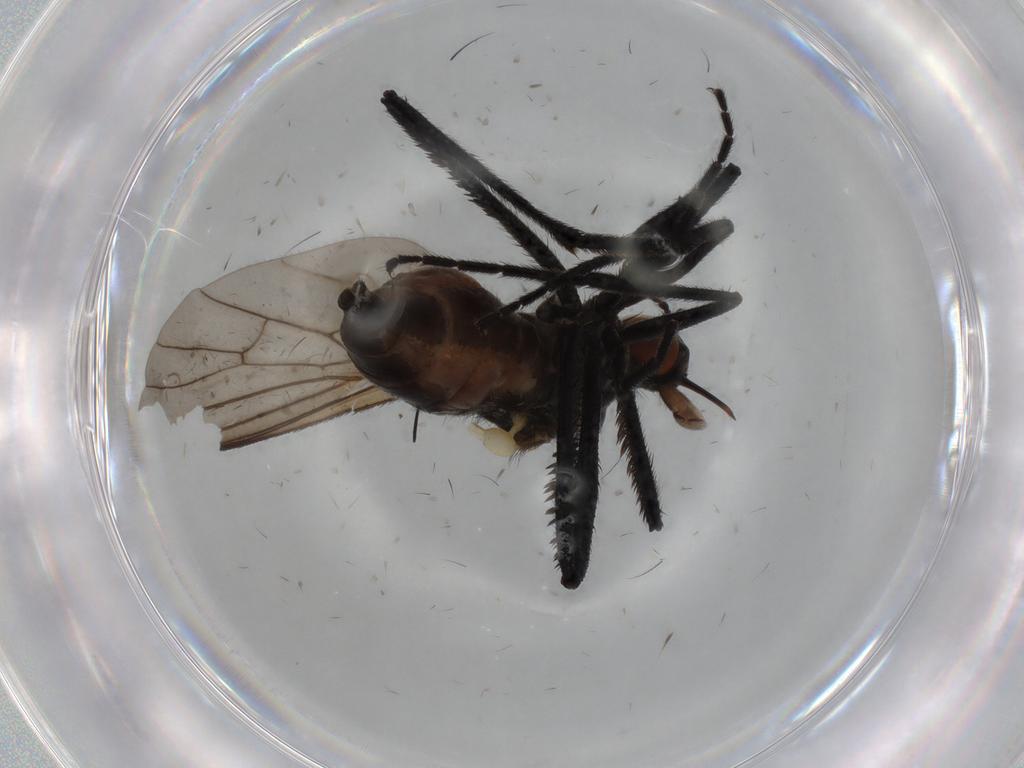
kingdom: Animalia
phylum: Arthropoda
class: Insecta
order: Diptera
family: Empididae
